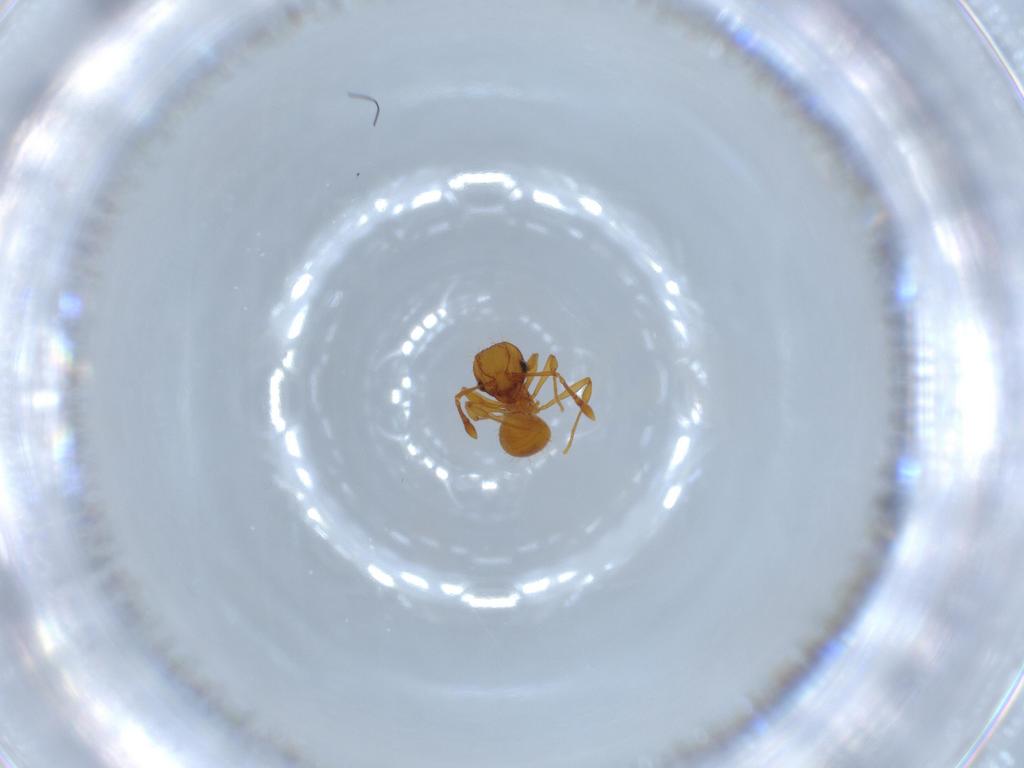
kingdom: Animalia
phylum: Arthropoda
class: Insecta
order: Hymenoptera
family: Formicidae
